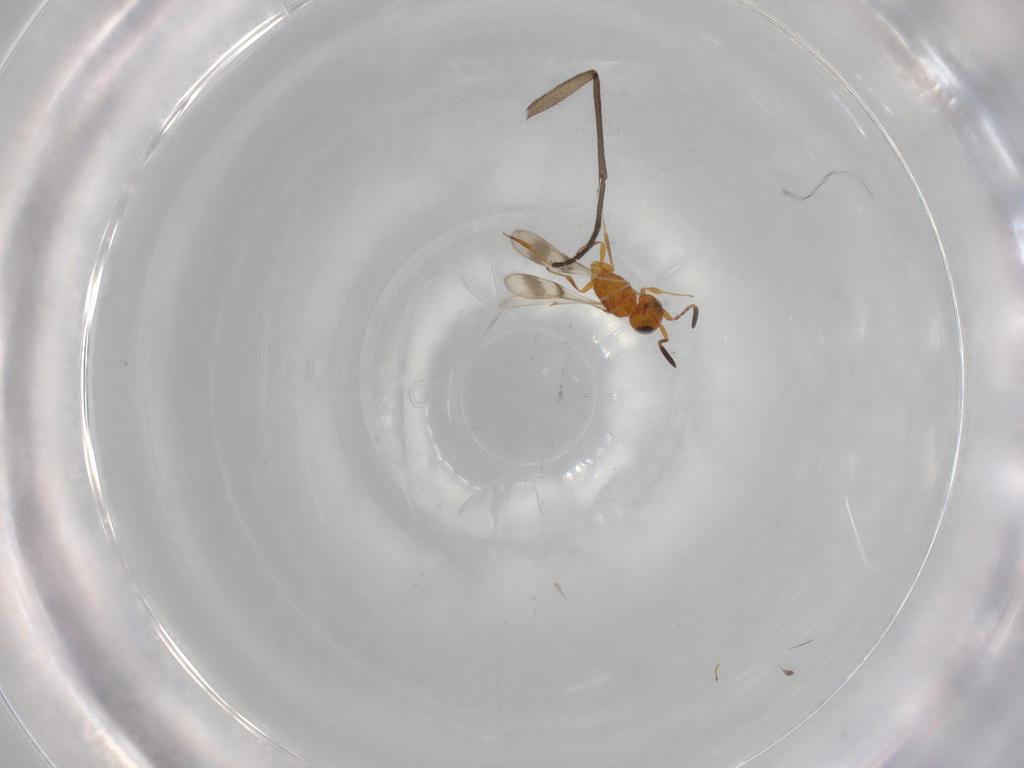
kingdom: Animalia
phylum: Arthropoda
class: Insecta
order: Hymenoptera
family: Scelionidae
